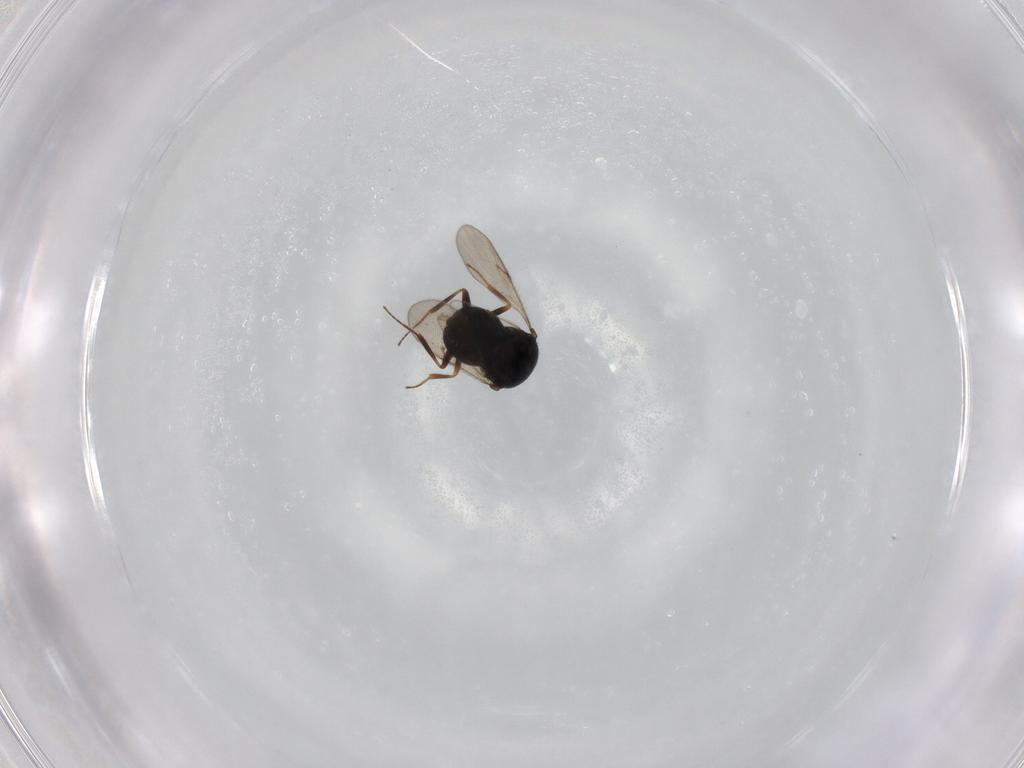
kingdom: Animalia
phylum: Arthropoda
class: Insecta
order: Hymenoptera
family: Scelionidae
